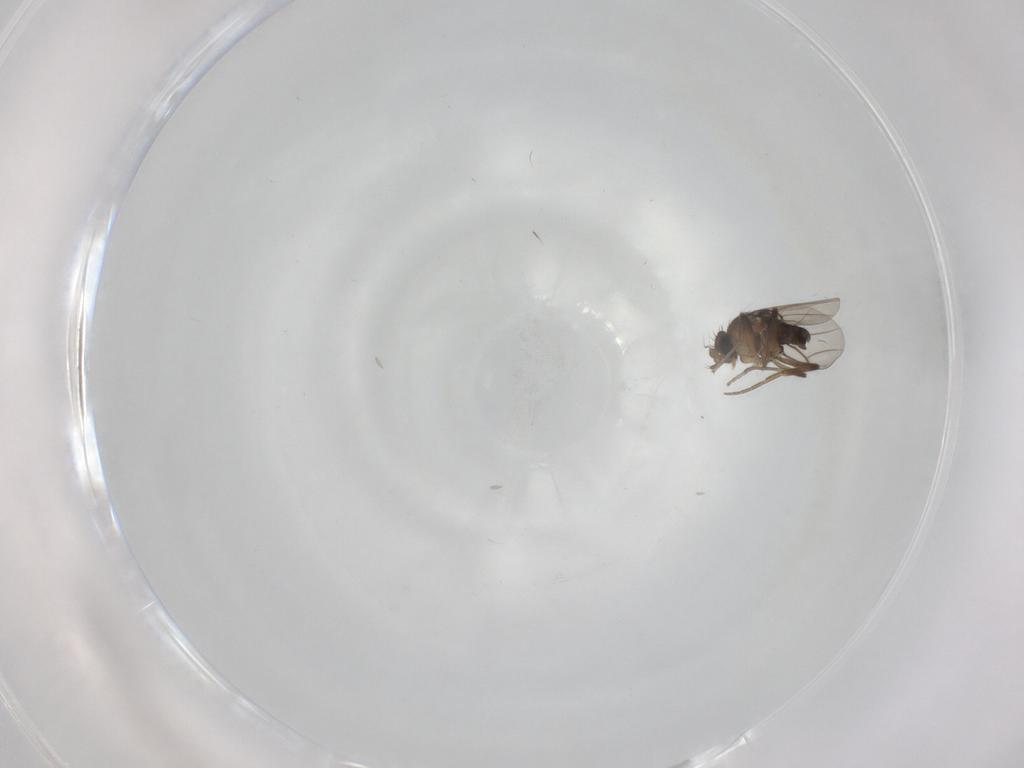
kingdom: Animalia
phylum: Arthropoda
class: Insecta
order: Diptera
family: Phoridae
